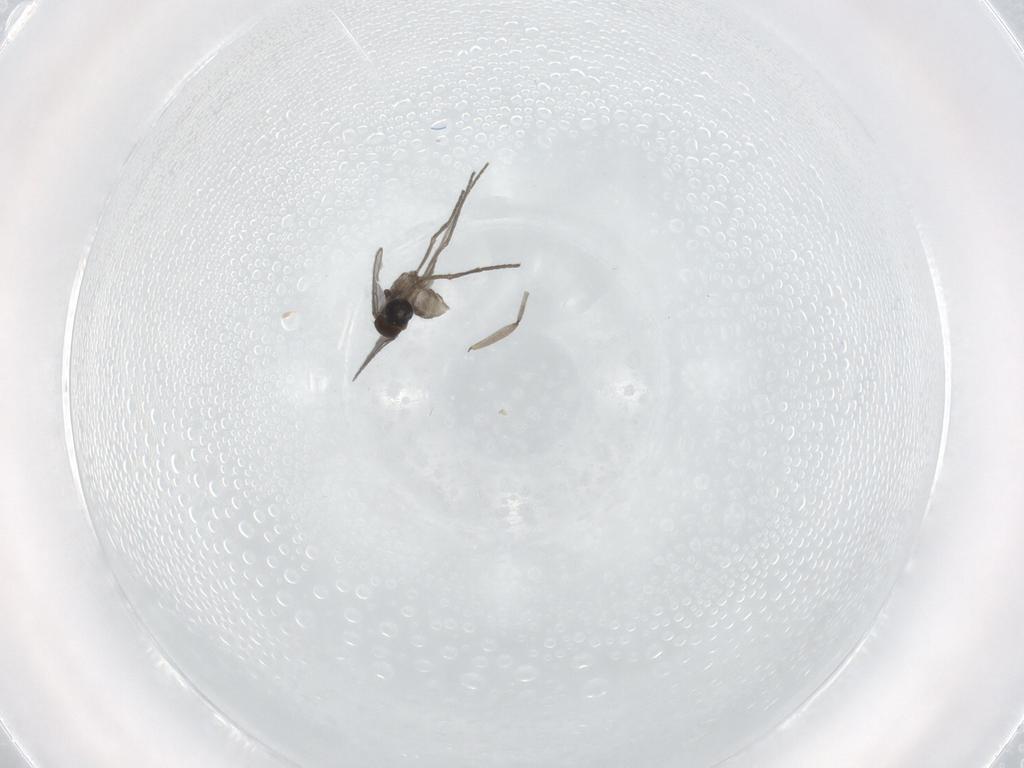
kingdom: Animalia
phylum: Arthropoda
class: Insecta
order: Diptera
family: Sciaridae
